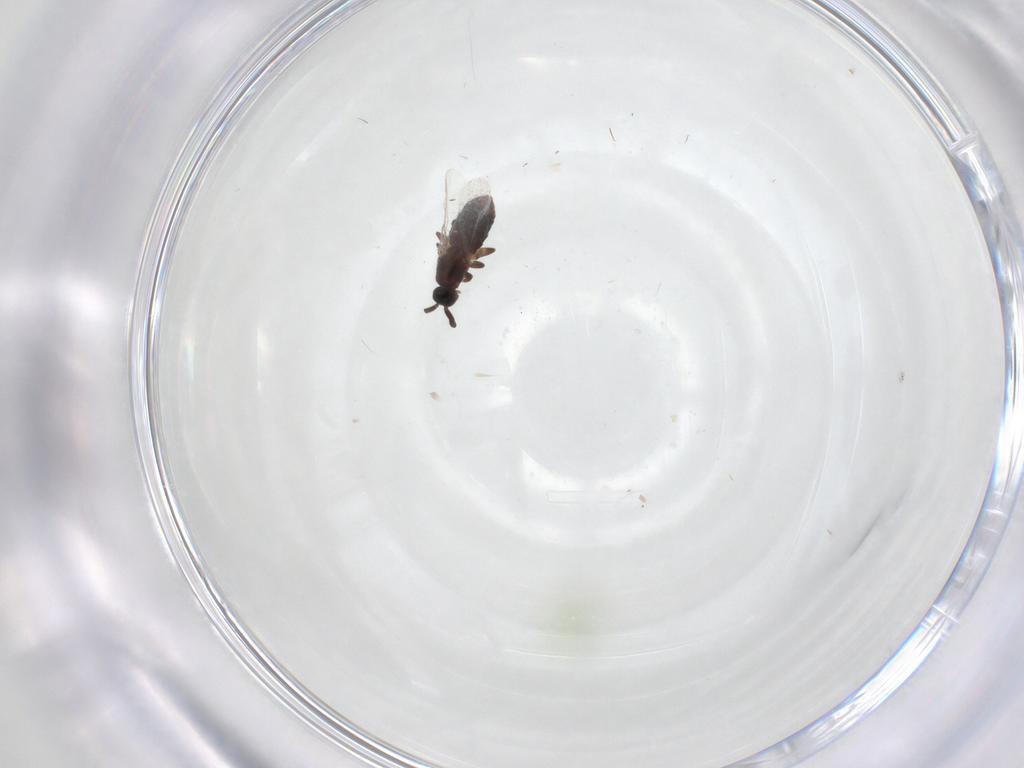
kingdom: Animalia
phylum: Arthropoda
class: Insecta
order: Diptera
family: Scatopsidae
